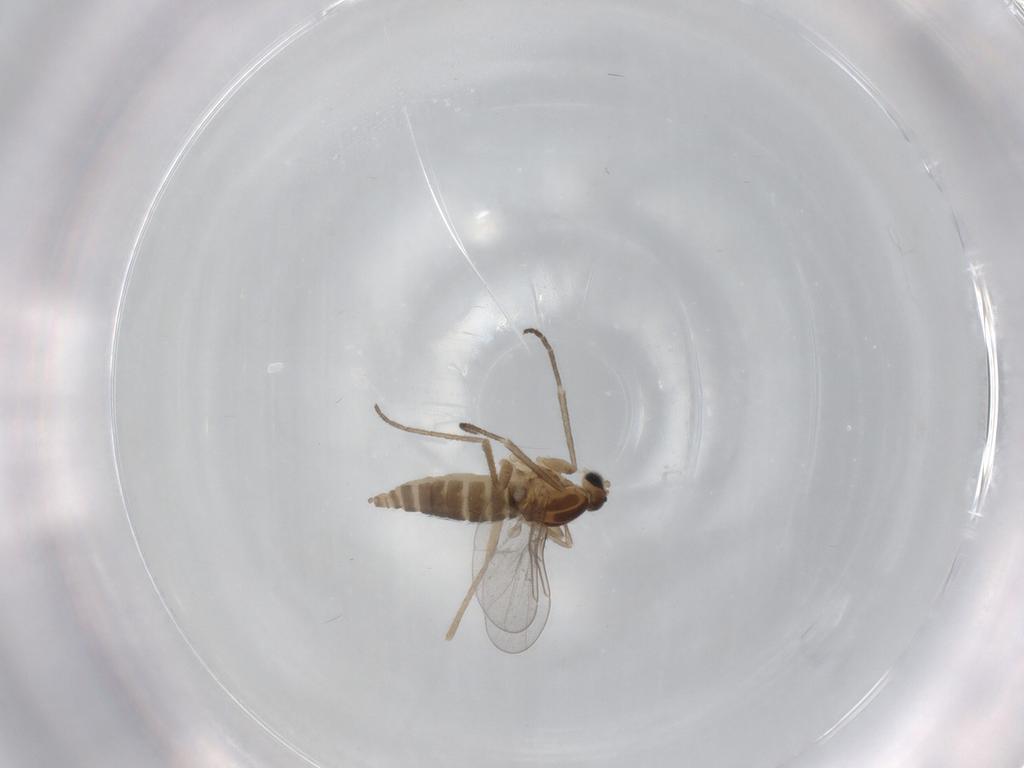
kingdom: Animalia
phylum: Arthropoda
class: Insecta
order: Diptera
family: Cecidomyiidae
